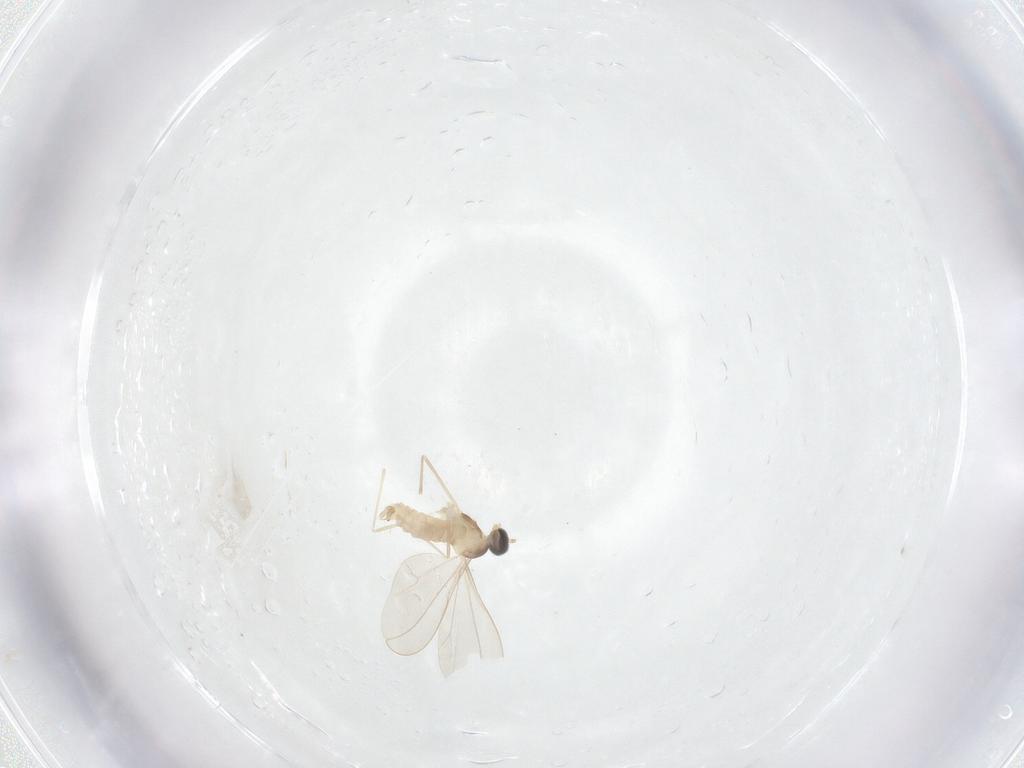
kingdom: Animalia
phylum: Arthropoda
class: Insecta
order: Diptera
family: Cecidomyiidae
